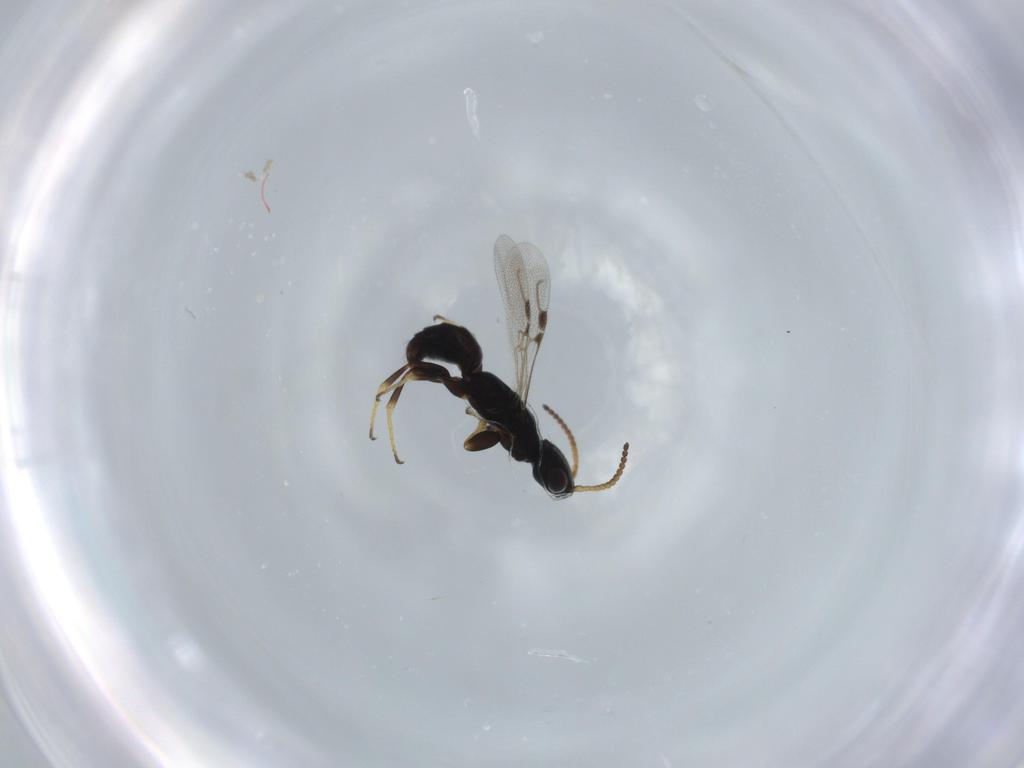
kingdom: Animalia
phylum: Arthropoda
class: Insecta
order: Hymenoptera
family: Bethylidae
